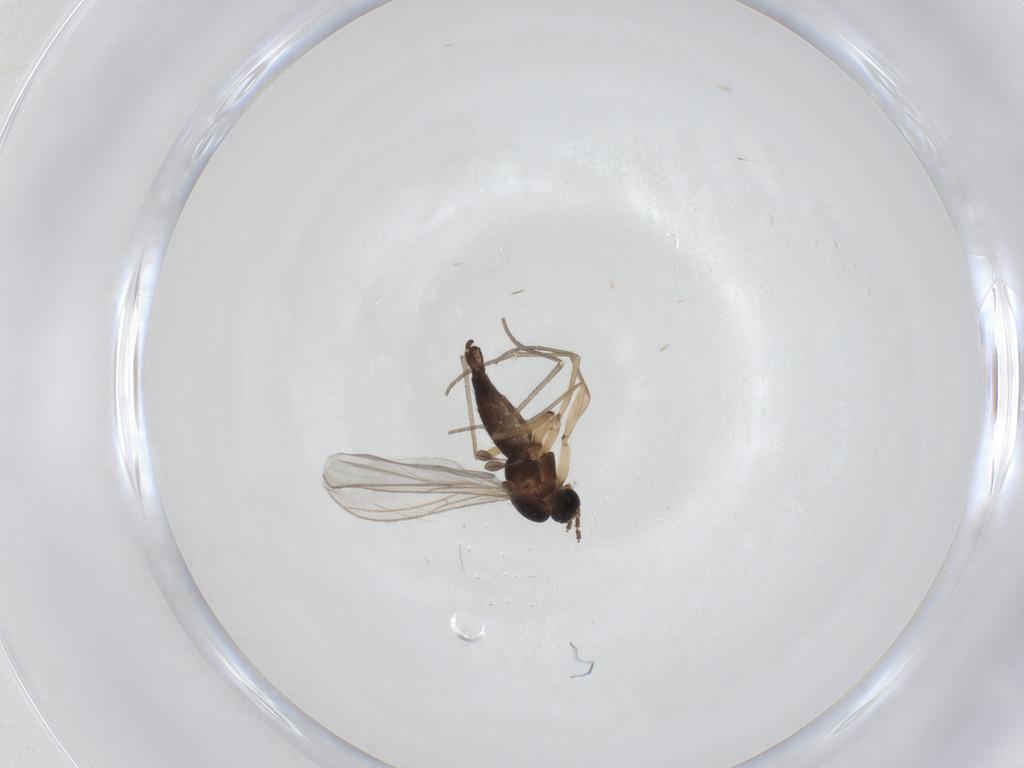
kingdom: Animalia
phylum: Arthropoda
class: Insecta
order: Diptera
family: Sciaridae
